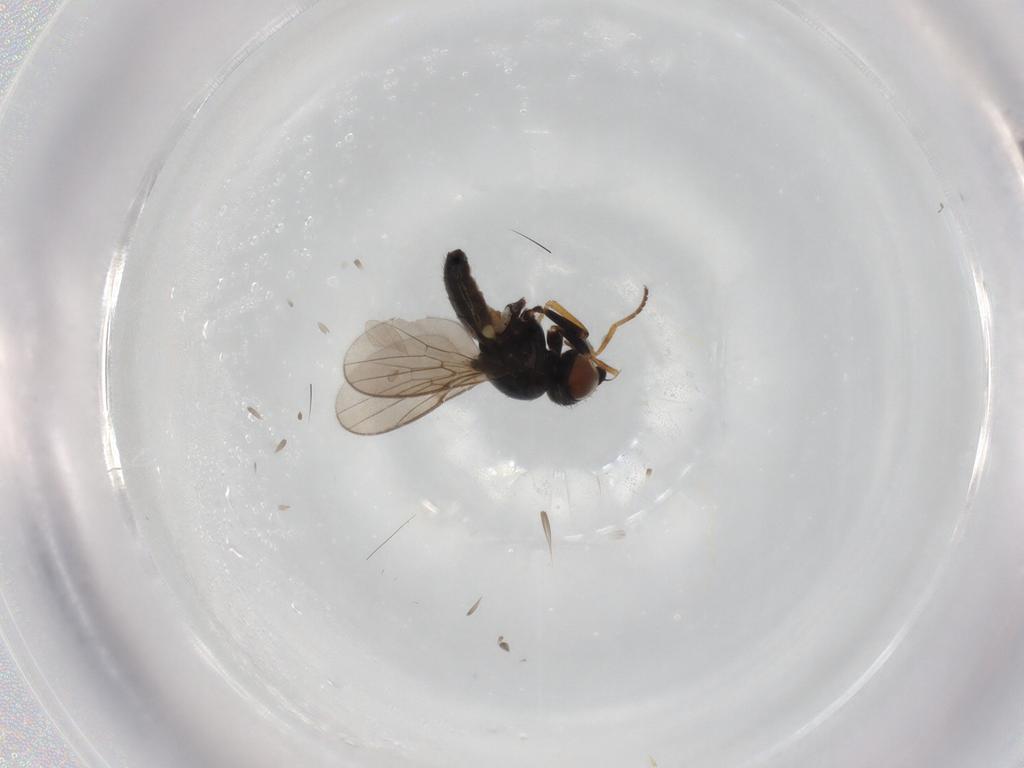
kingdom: Animalia
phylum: Arthropoda
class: Insecta
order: Diptera
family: Chloropidae
